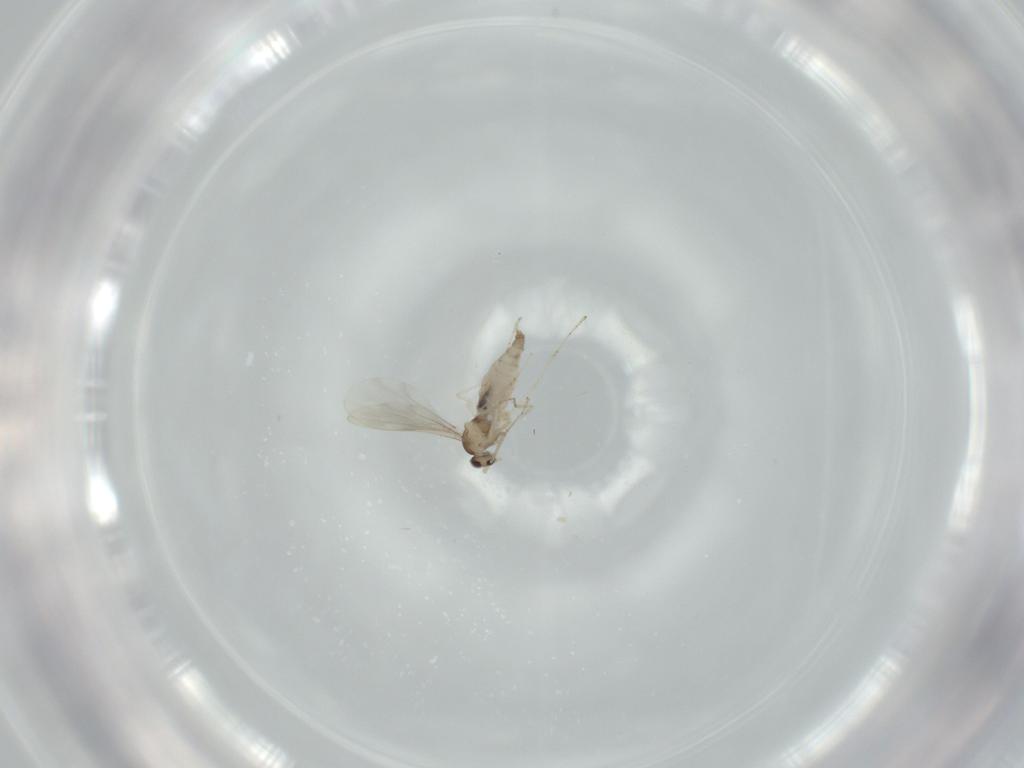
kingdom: Animalia
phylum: Arthropoda
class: Insecta
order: Diptera
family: Cecidomyiidae
